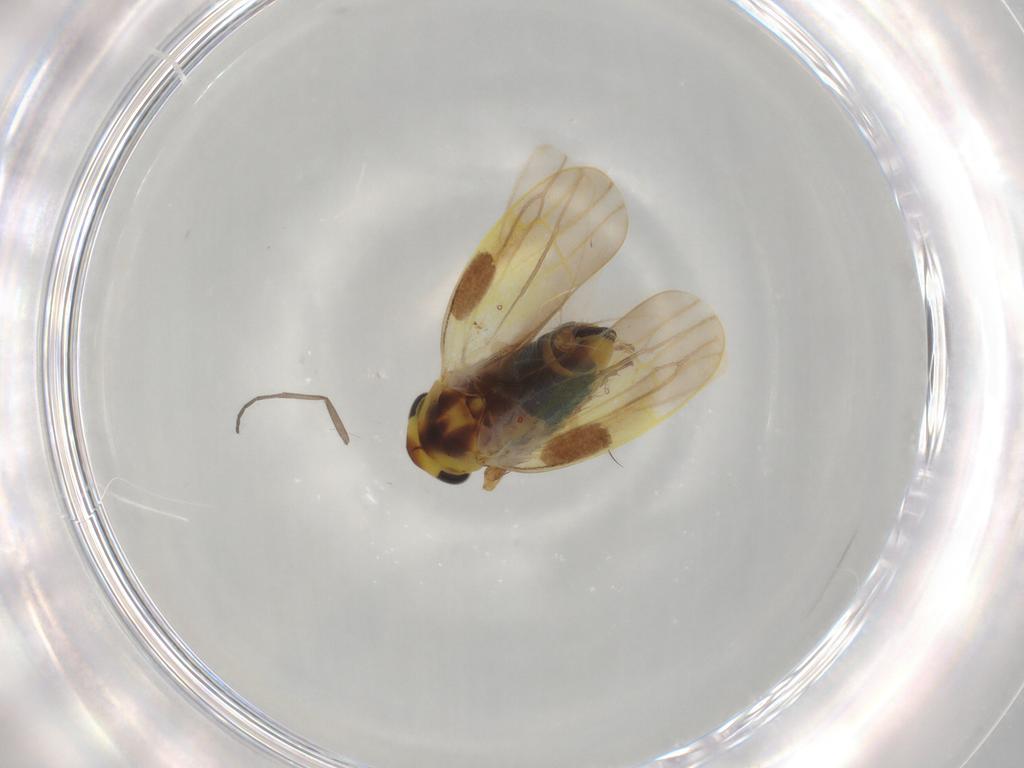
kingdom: Animalia
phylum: Arthropoda
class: Insecta
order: Hemiptera
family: Cicadellidae
